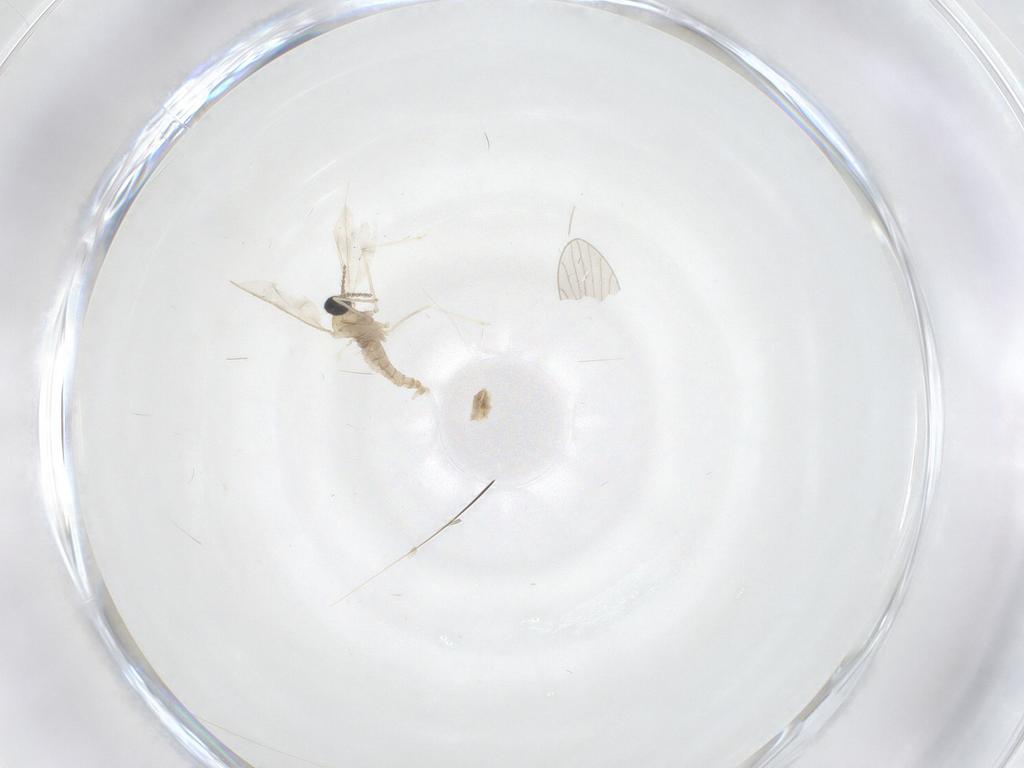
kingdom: Animalia
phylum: Arthropoda
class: Insecta
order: Diptera
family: Cecidomyiidae
